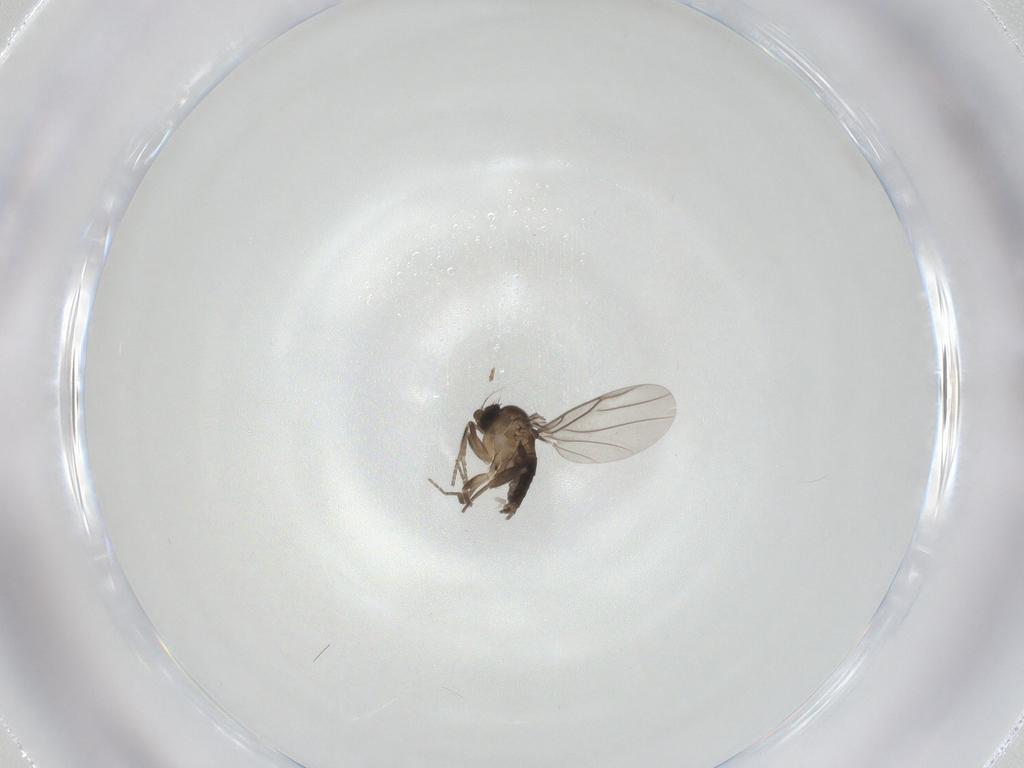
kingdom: Animalia
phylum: Arthropoda
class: Insecta
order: Diptera
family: Phoridae
